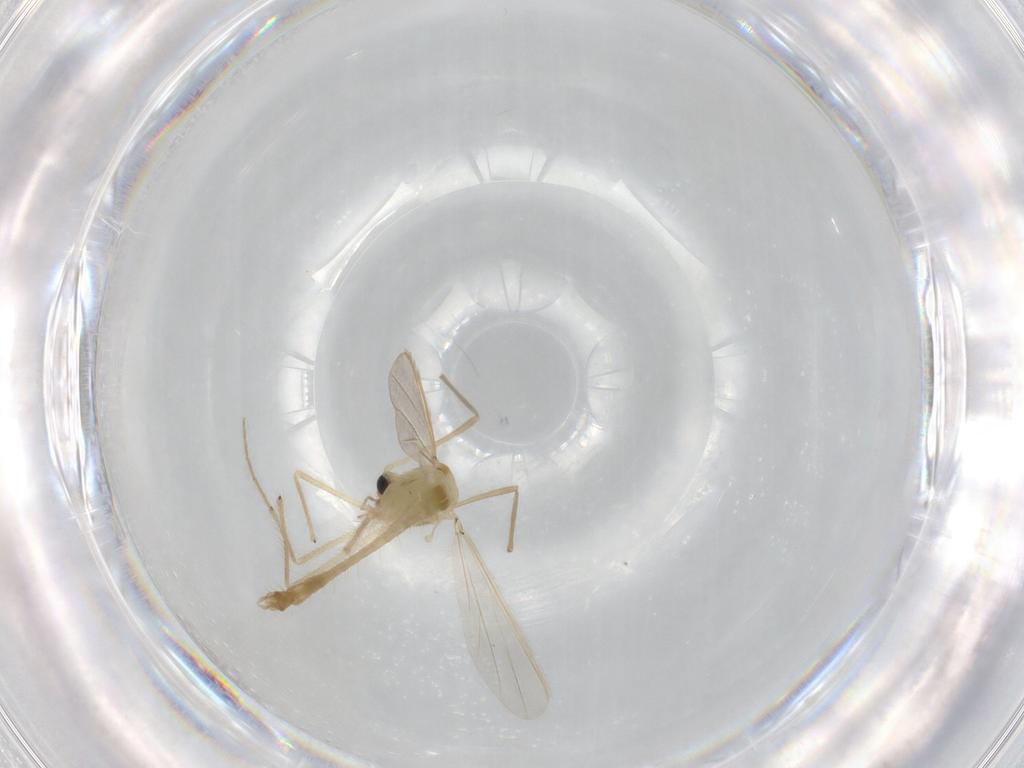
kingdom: Animalia
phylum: Arthropoda
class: Insecta
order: Diptera
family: Chironomidae
